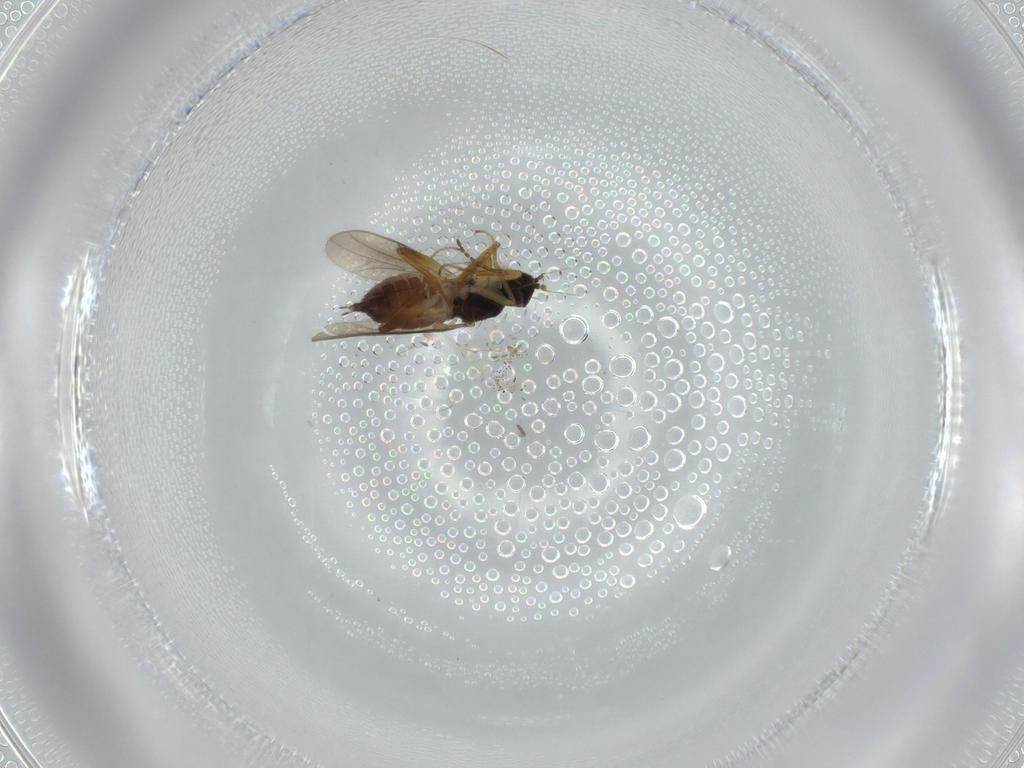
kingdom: Animalia
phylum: Arthropoda
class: Insecta
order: Diptera
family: Hybotidae
